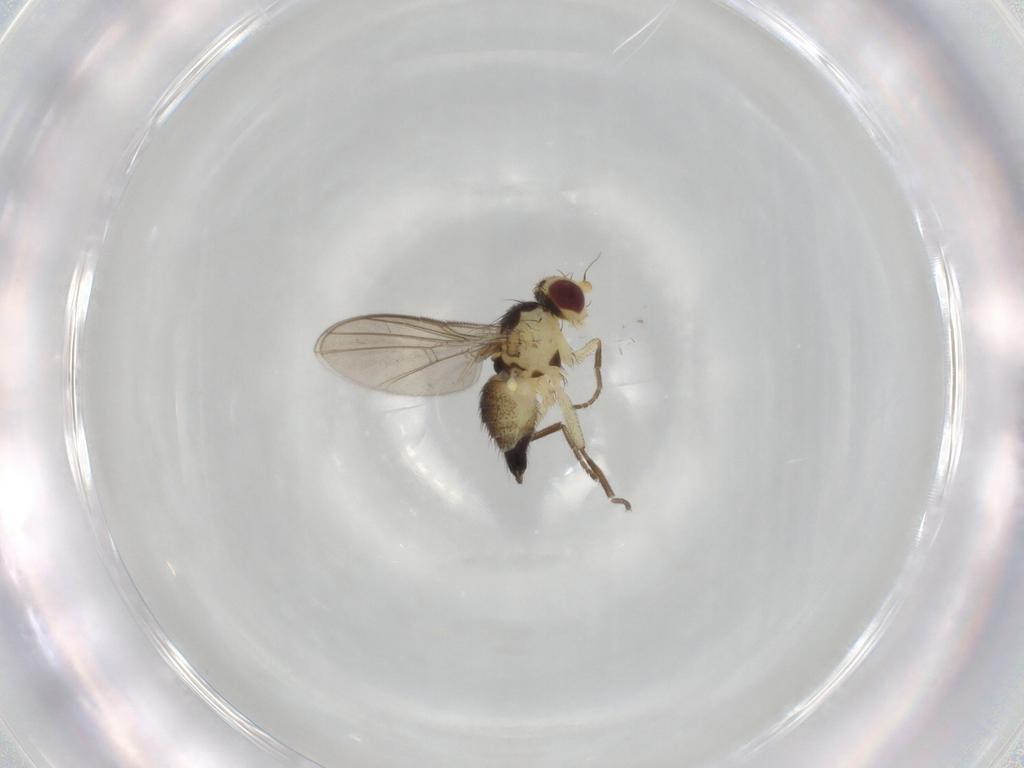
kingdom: Animalia
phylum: Arthropoda
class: Insecta
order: Diptera
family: Agromyzidae
